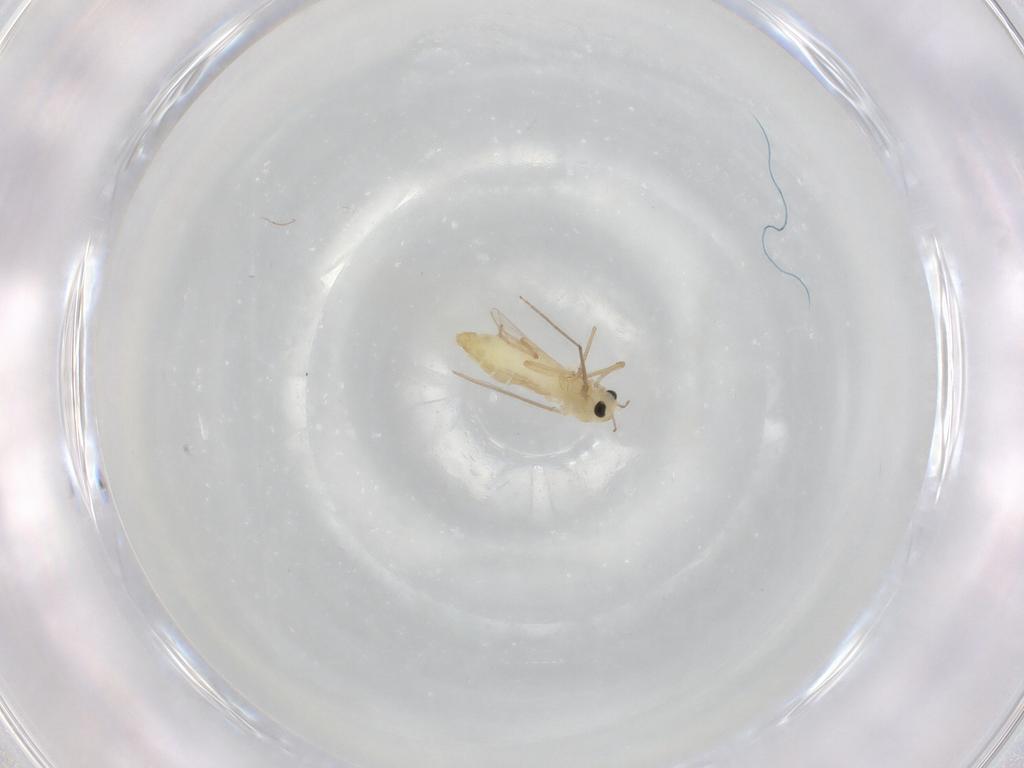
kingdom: Animalia
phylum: Arthropoda
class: Insecta
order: Diptera
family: Chironomidae
